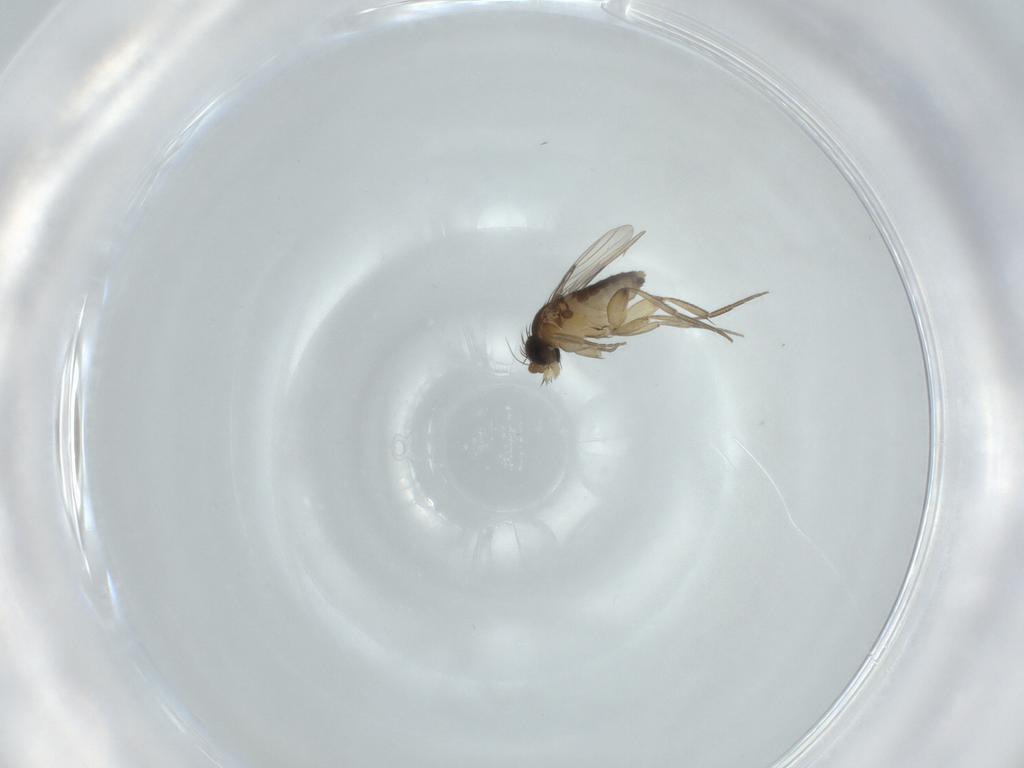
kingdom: Animalia
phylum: Arthropoda
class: Insecta
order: Diptera
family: Phoridae
